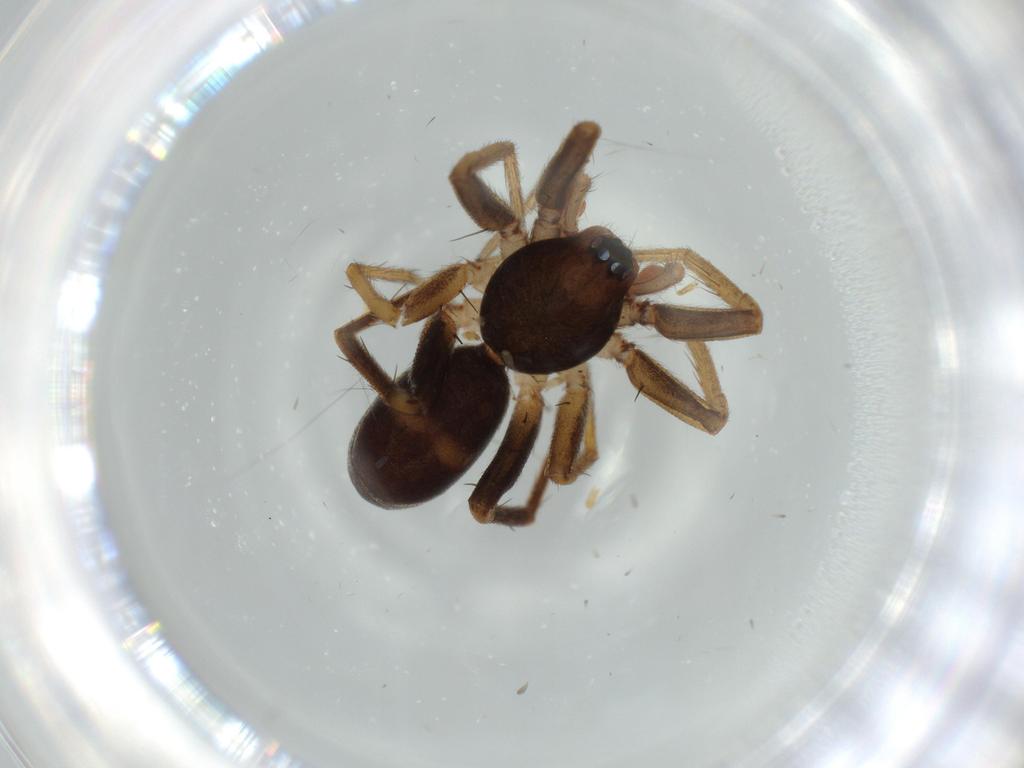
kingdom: Animalia
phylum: Arthropoda
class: Arachnida
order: Araneae
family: Corinnidae
